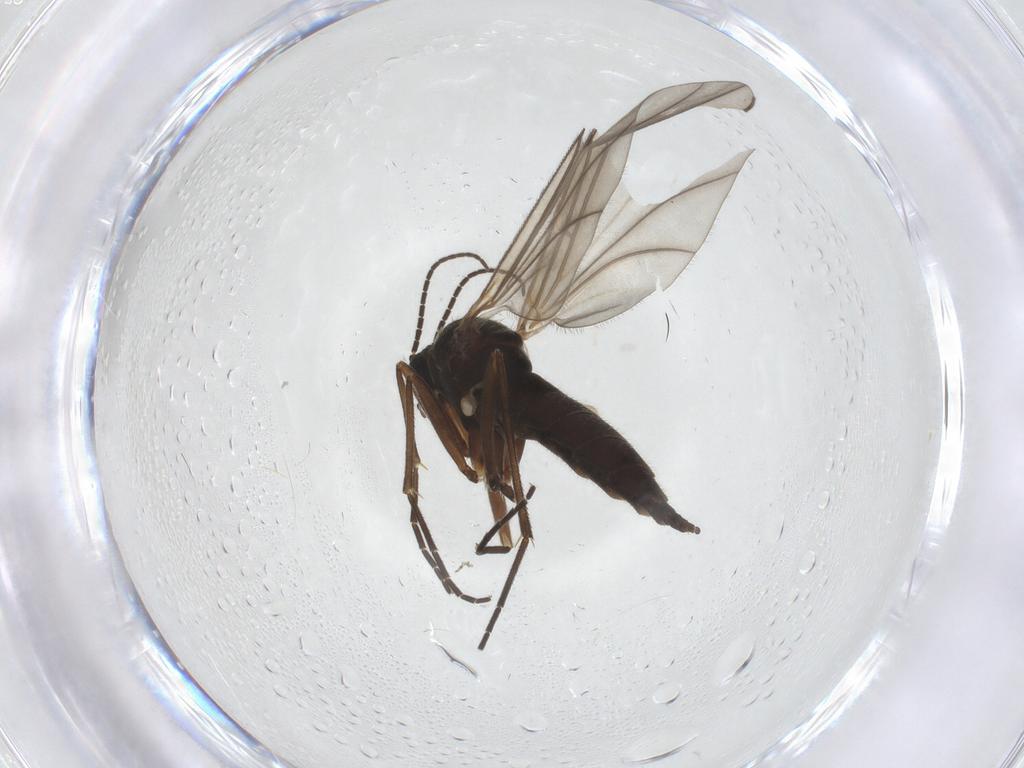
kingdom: Animalia
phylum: Arthropoda
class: Insecta
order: Diptera
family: Sciaridae
